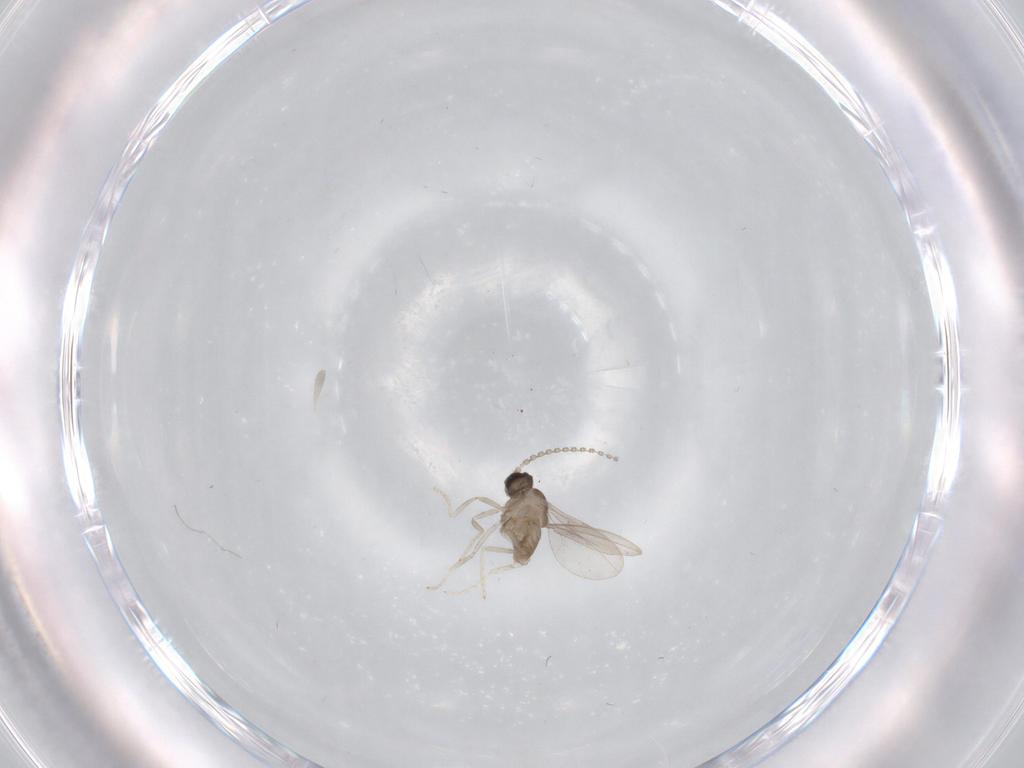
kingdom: Animalia
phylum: Arthropoda
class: Insecta
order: Diptera
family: Cecidomyiidae
